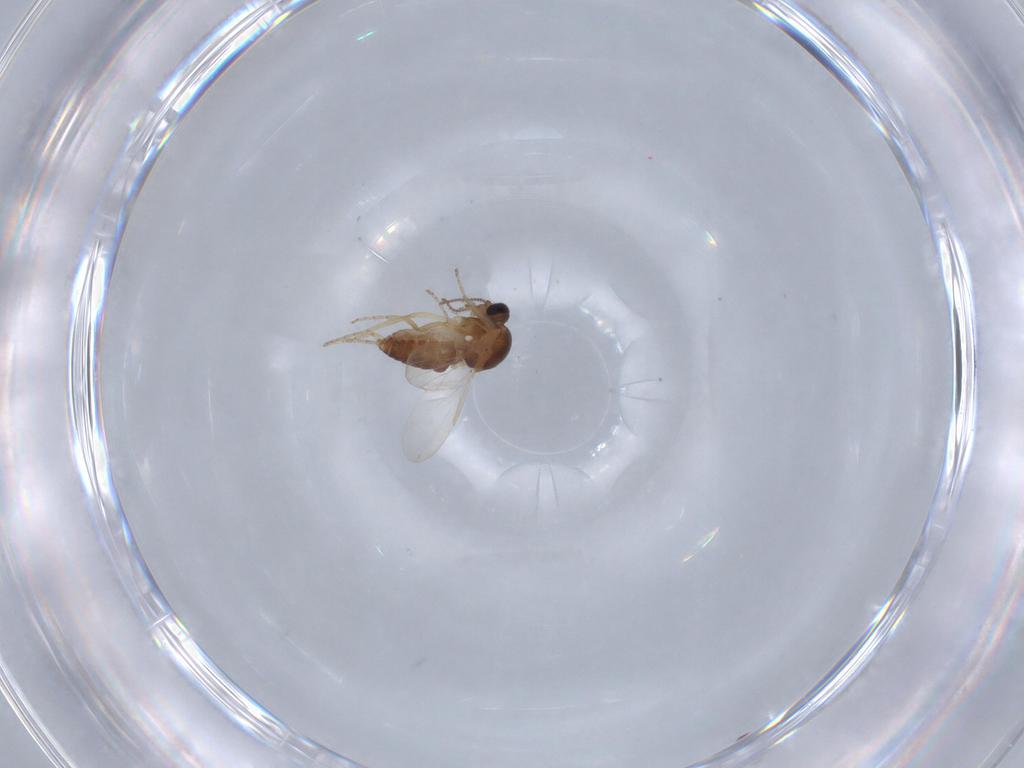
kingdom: Animalia
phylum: Arthropoda
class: Insecta
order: Diptera
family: Ceratopogonidae
